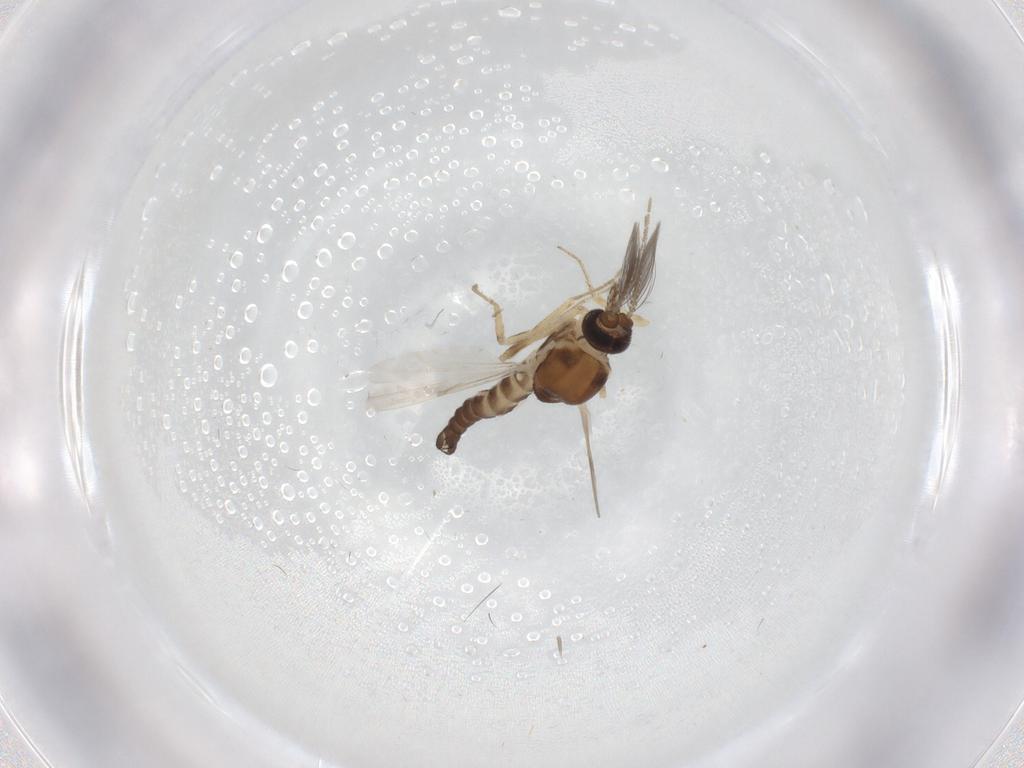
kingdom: Animalia
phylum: Arthropoda
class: Insecta
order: Diptera
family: Ceratopogonidae
